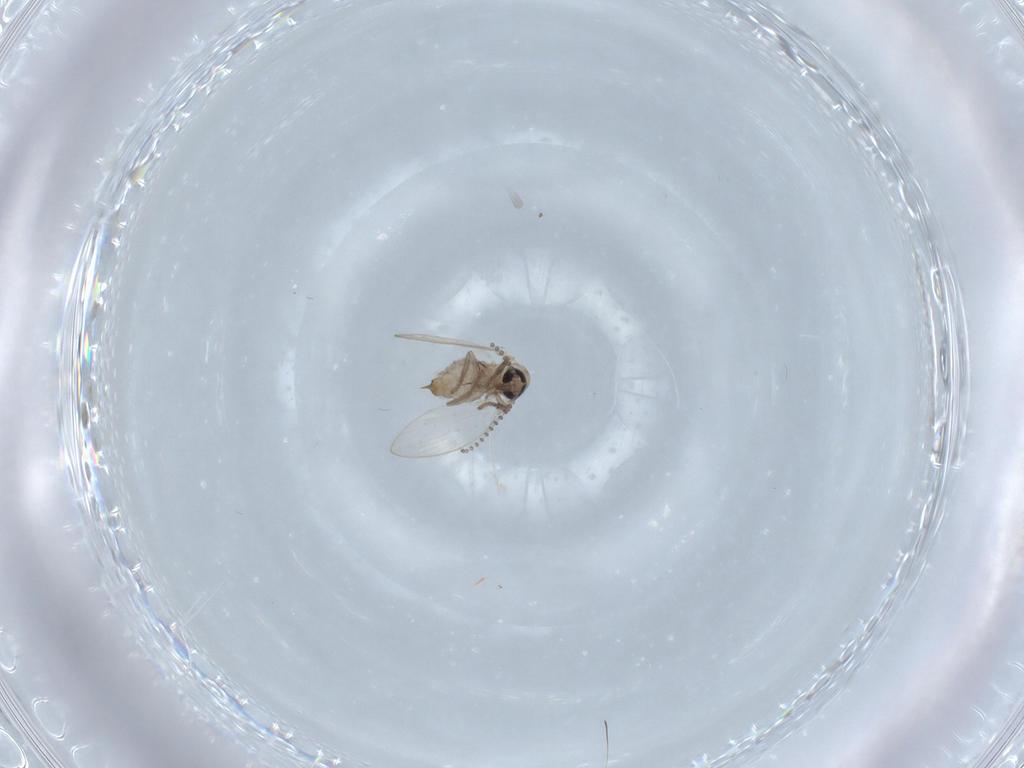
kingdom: Animalia
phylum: Arthropoda
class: Insecta
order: Diptera
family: Psychodidae
